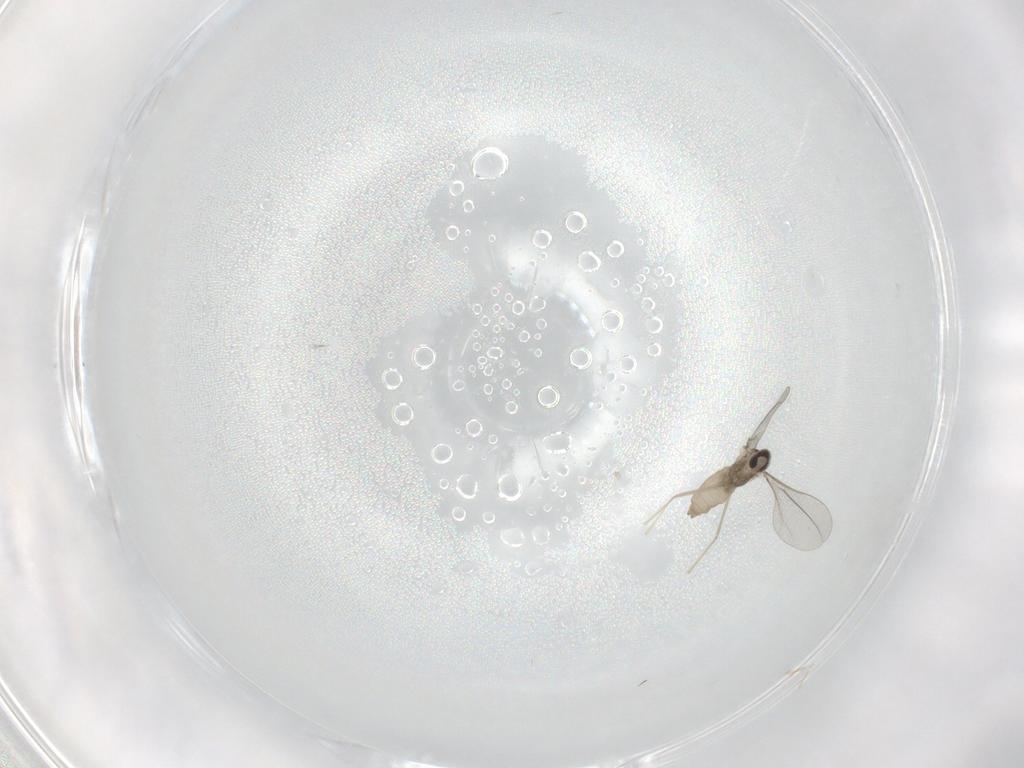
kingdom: Animalia
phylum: Arthropoda
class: Insecta
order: Diptera
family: Cecidomyiidae
